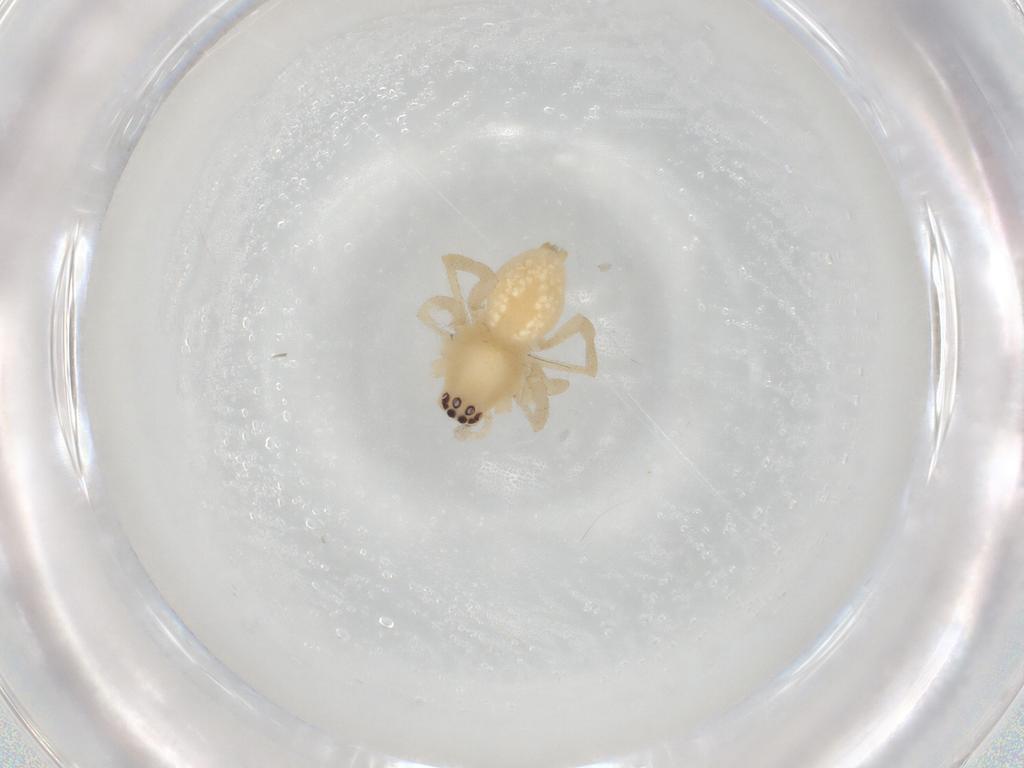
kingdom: Animalia
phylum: Arthropoda
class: Arachnida
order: Araneae
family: Cheiracanthiidae
